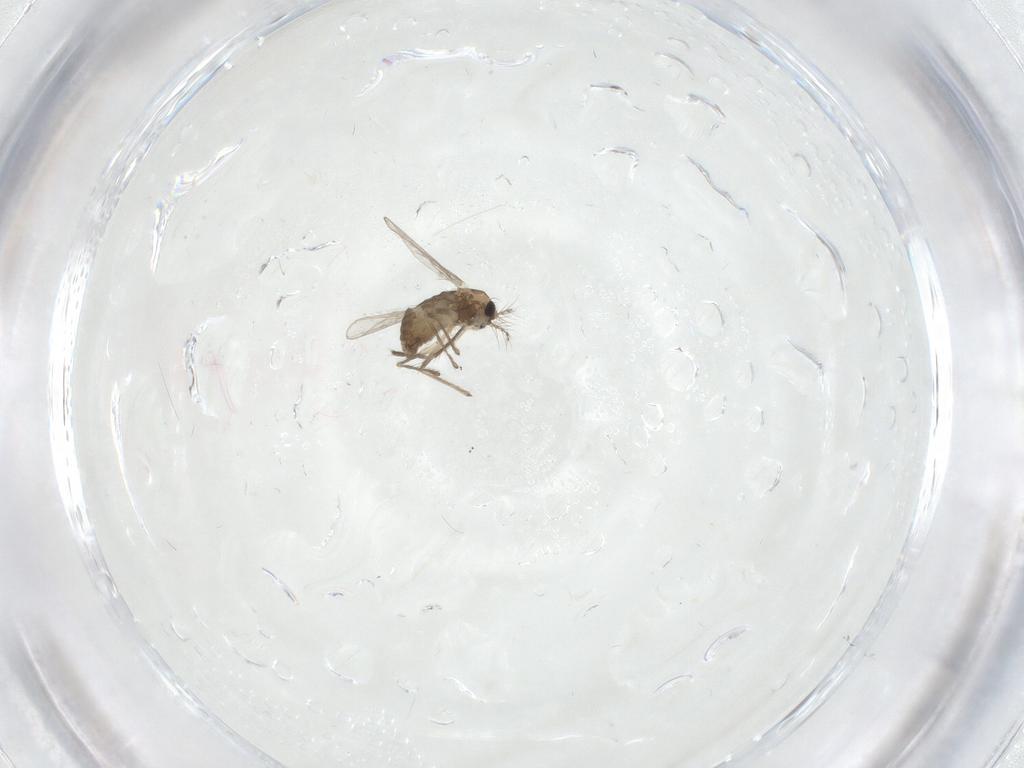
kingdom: Animalia
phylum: Arthropoda
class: Insecta
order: Diptera
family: Chironomidae
